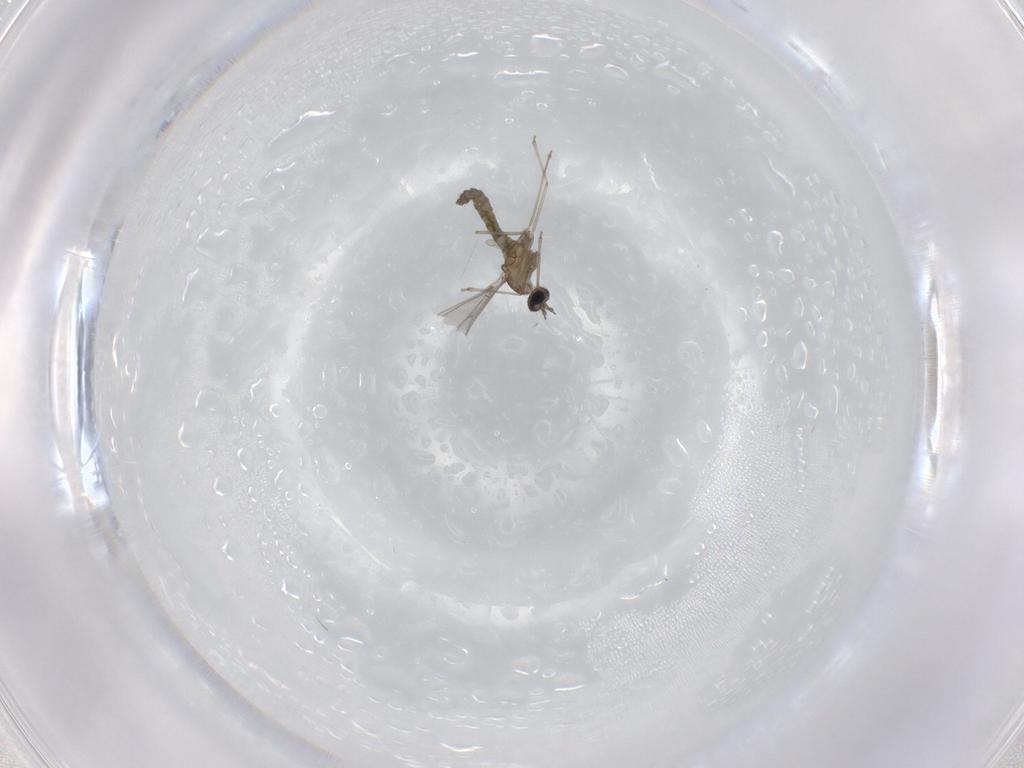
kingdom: Animalia
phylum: Arthropoda
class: Insecta
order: Diptera
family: Cecidomyiidae
